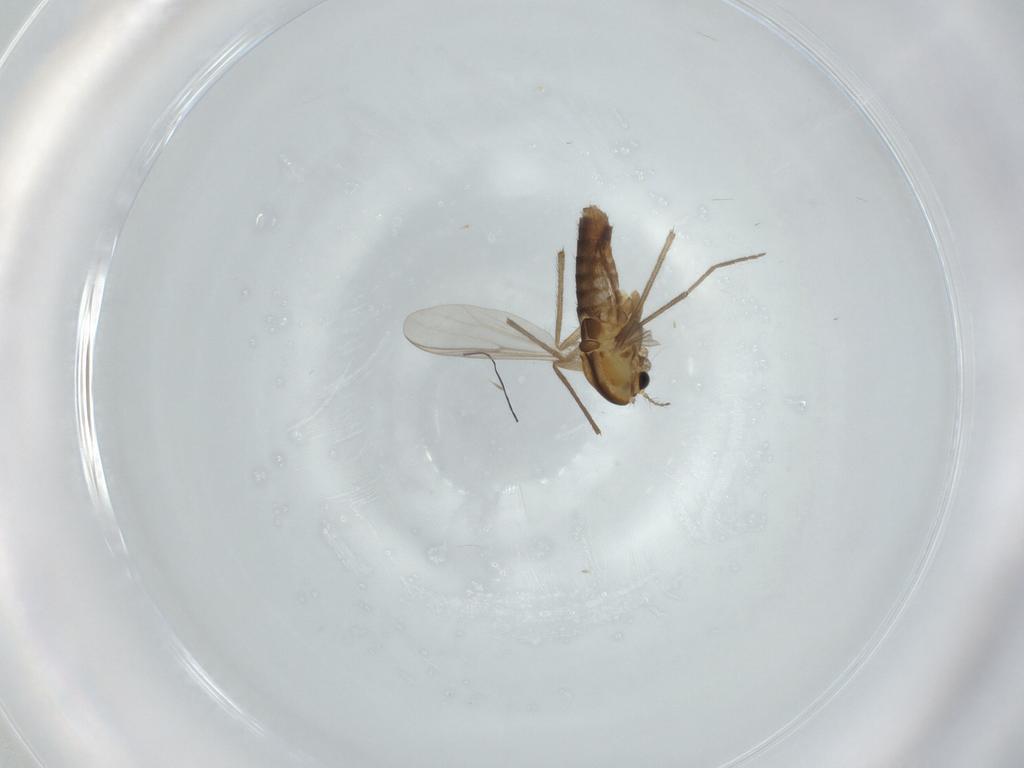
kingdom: Animalia
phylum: Arthropoda
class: Insecta
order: Diptera
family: Chironomidae
